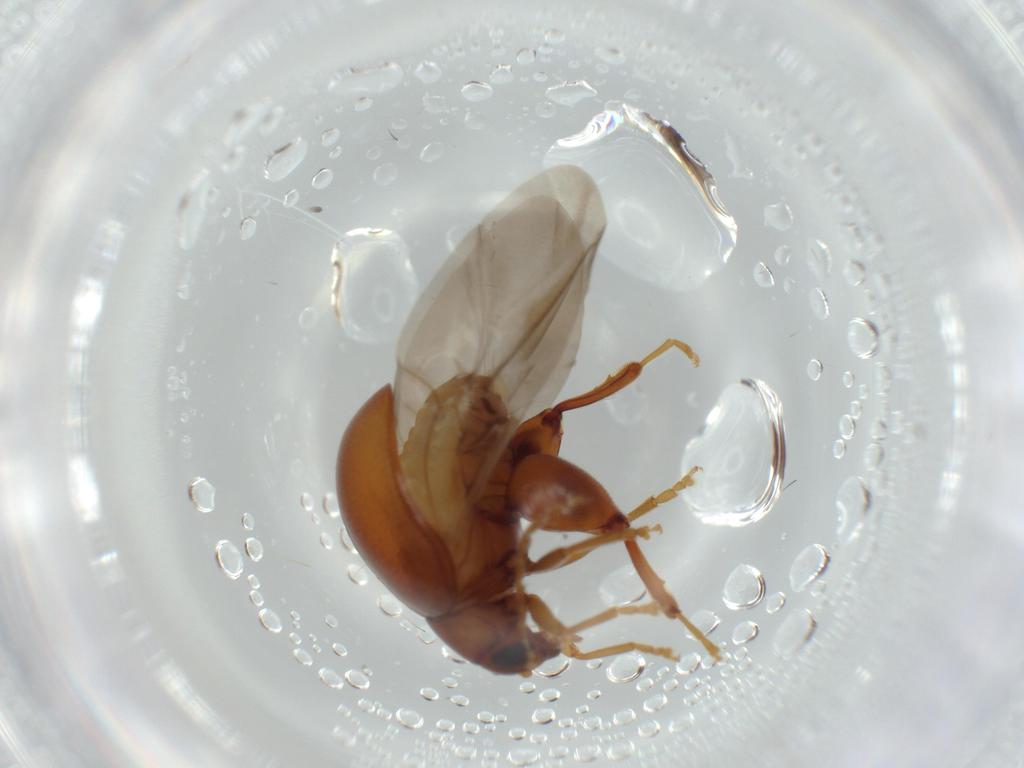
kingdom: Animalia
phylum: Arthropoda
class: Insecta
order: Coleoptera
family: Chrysomelidae
